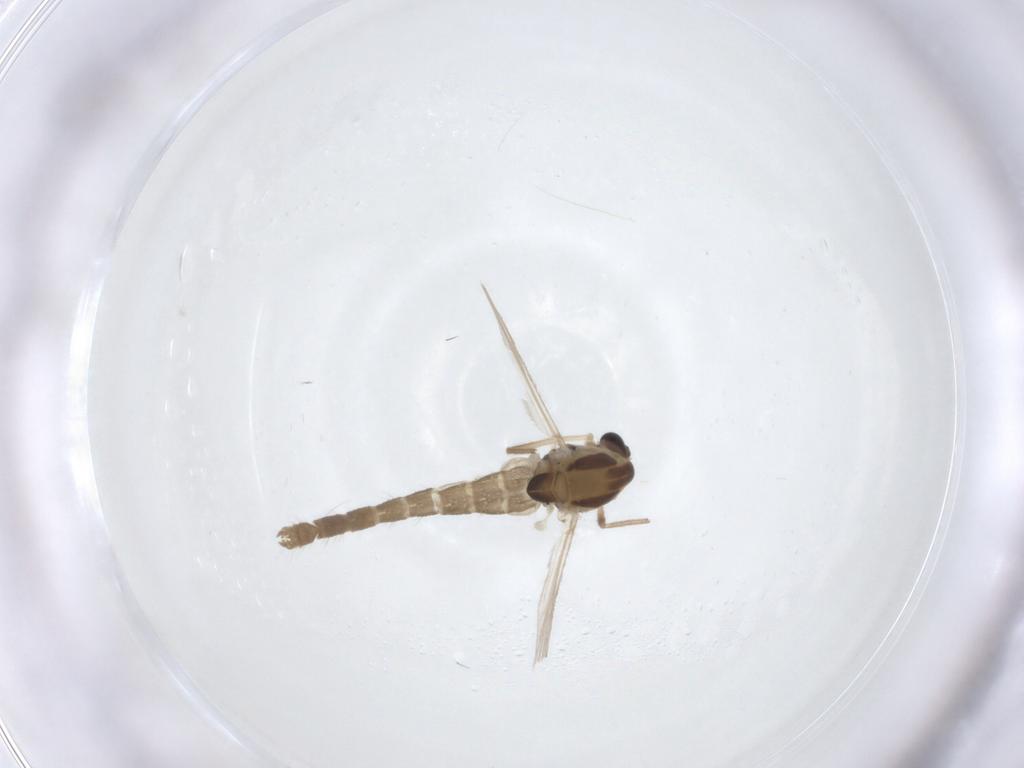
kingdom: Animalia
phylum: Arthropoda
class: Insecta
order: Diptera
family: Chironomidae
